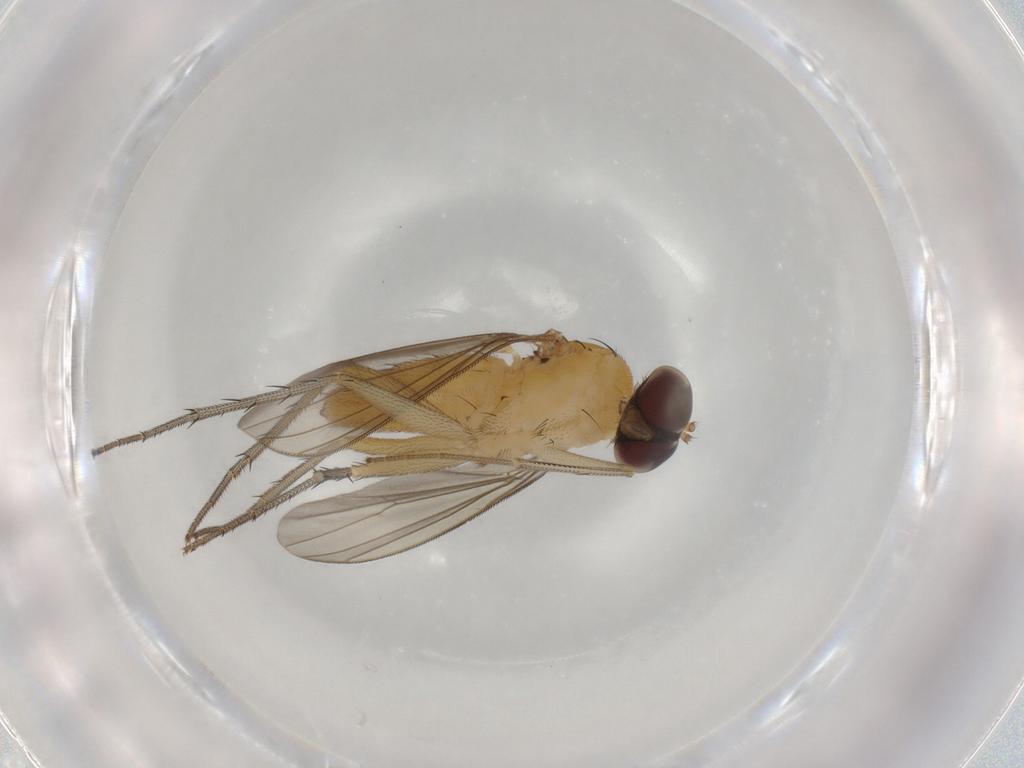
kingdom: Animalia
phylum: Arthropoda
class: Insecta
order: Diptera
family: Dolichopodidae
